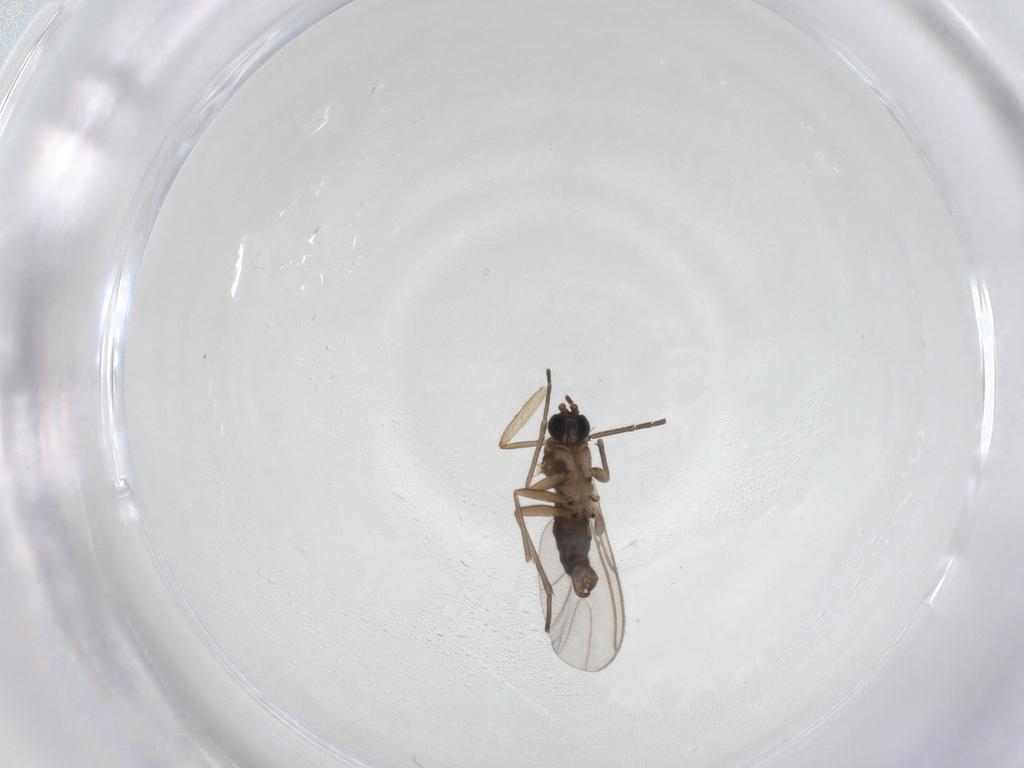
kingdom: Animalia
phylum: Arthropoda
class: Insecta
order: Diptera
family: Sciaridae
